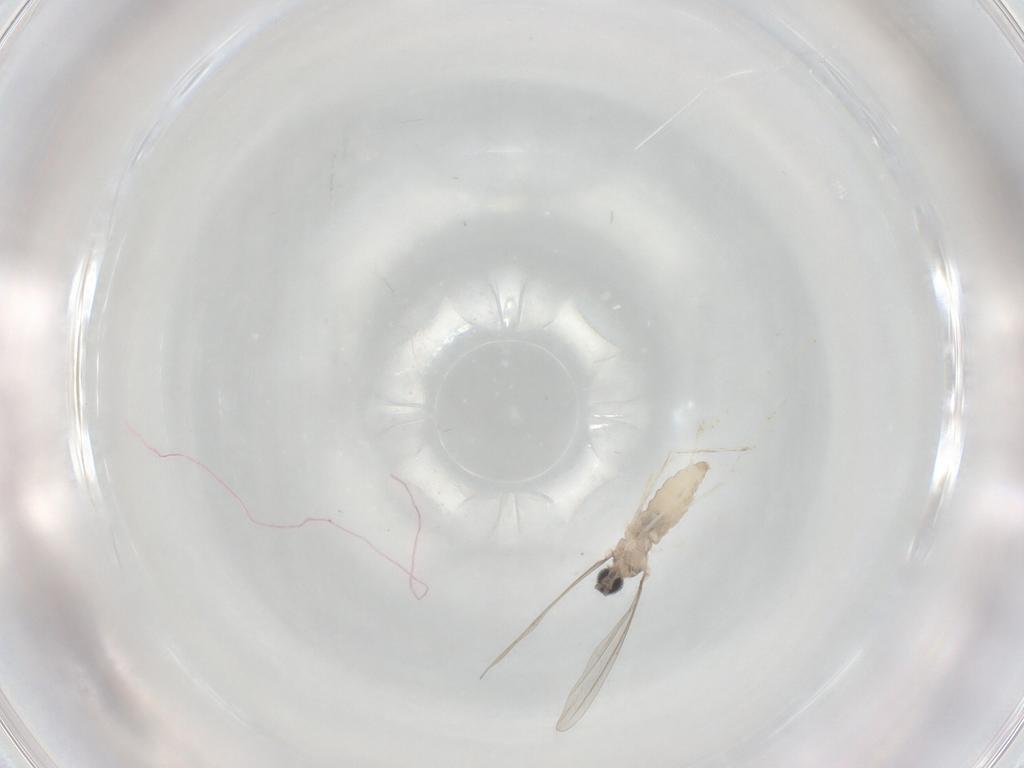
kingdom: Animalia
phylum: Arthropoda
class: Insecta
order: Diptera
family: Cecidomyiidae
